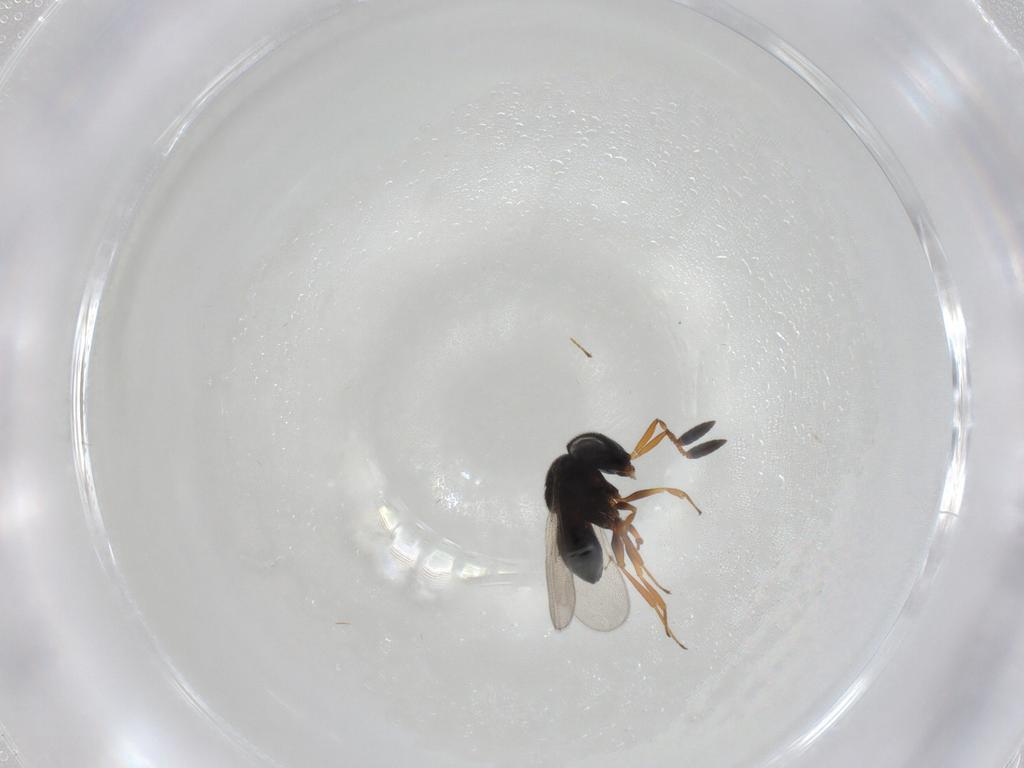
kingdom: Animalia
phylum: Arthropoda
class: Insecta
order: Hymenoptera
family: Scelionidae
